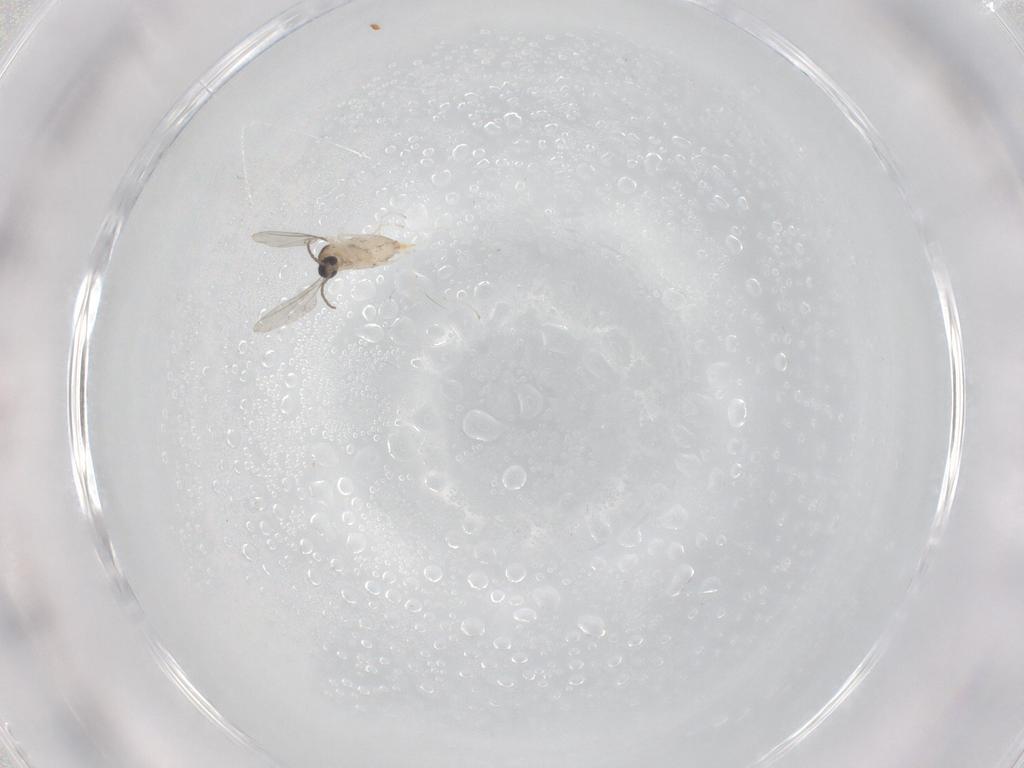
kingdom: Animalia
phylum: Arthropoda
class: Insecta
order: Diptera
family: Cecidomyiidae
